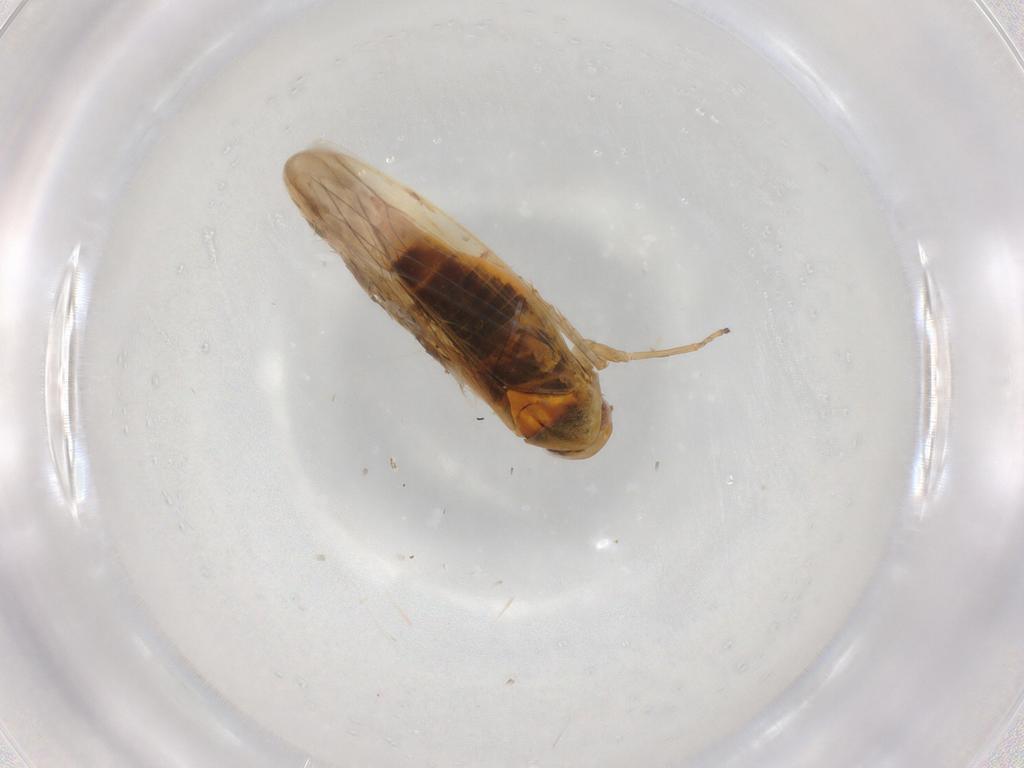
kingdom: Animalia
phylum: Arthropoda
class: Insecta
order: Hemiptera
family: Cicadellidae
